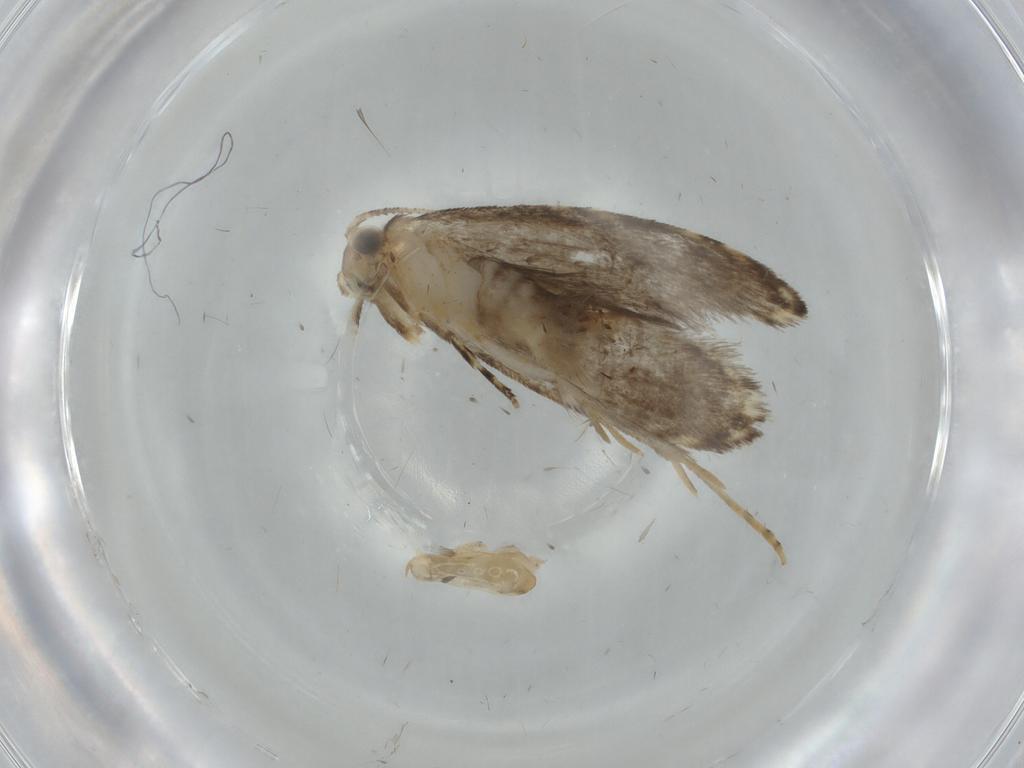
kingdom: Animalia
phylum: Arthropoda
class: Insecta
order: Lepidoptera
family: Tineidae
